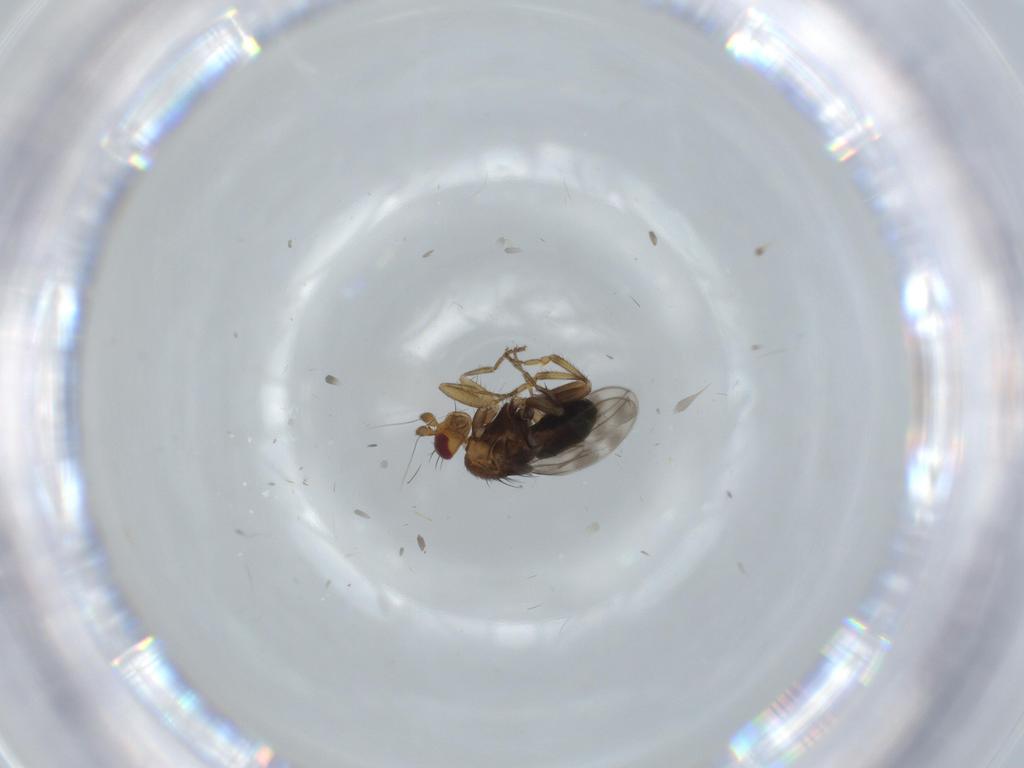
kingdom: Animalia
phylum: Arthropoda
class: Insecta
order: Diptera
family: Sphaeroceridae
